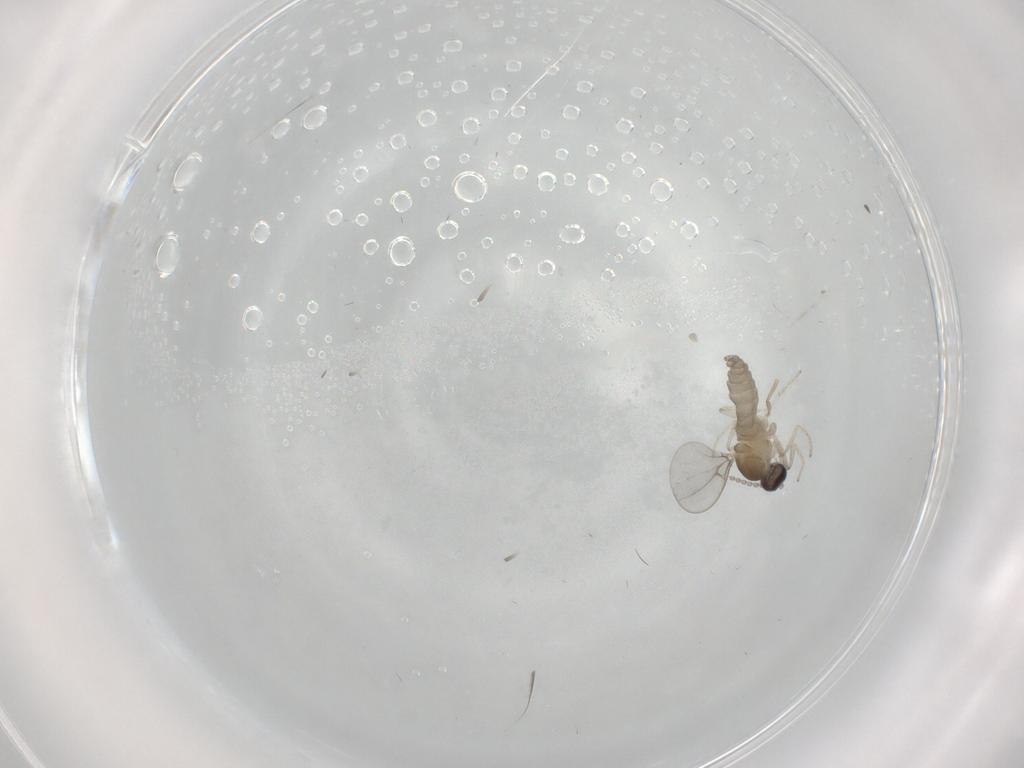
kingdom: Animalia
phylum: Arthropoda
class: Insecta
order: Diptera
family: Cecidomyiidae
